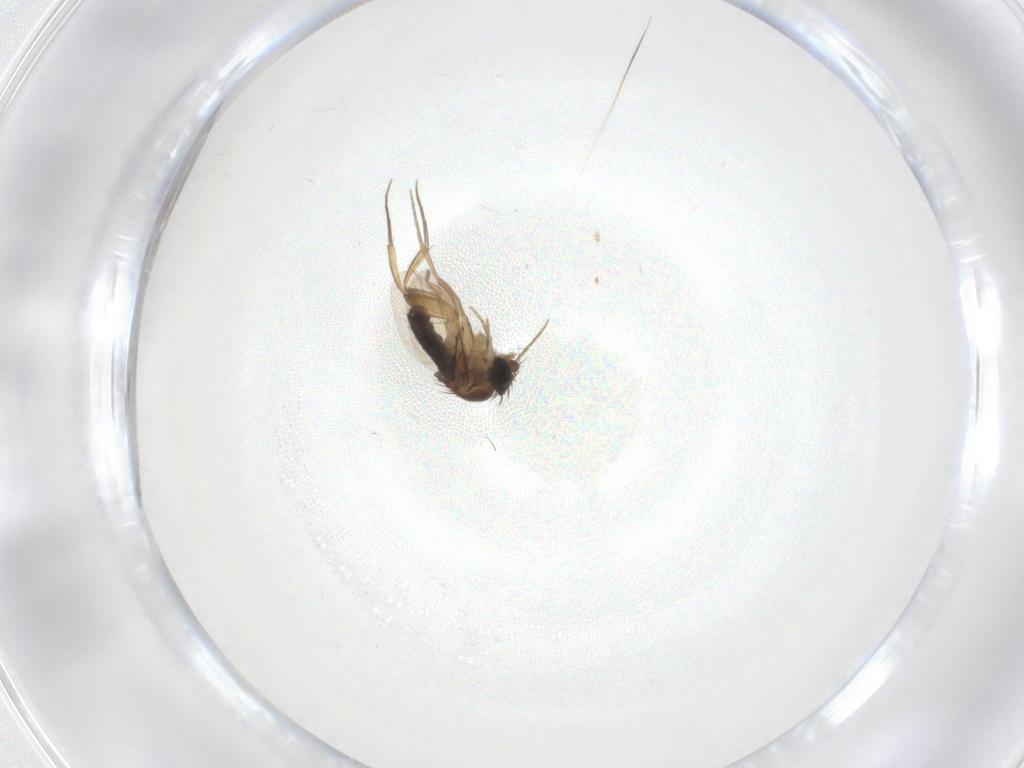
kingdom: Animalia
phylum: Arthropoda
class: Insecta
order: Diptera
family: Phoridae
